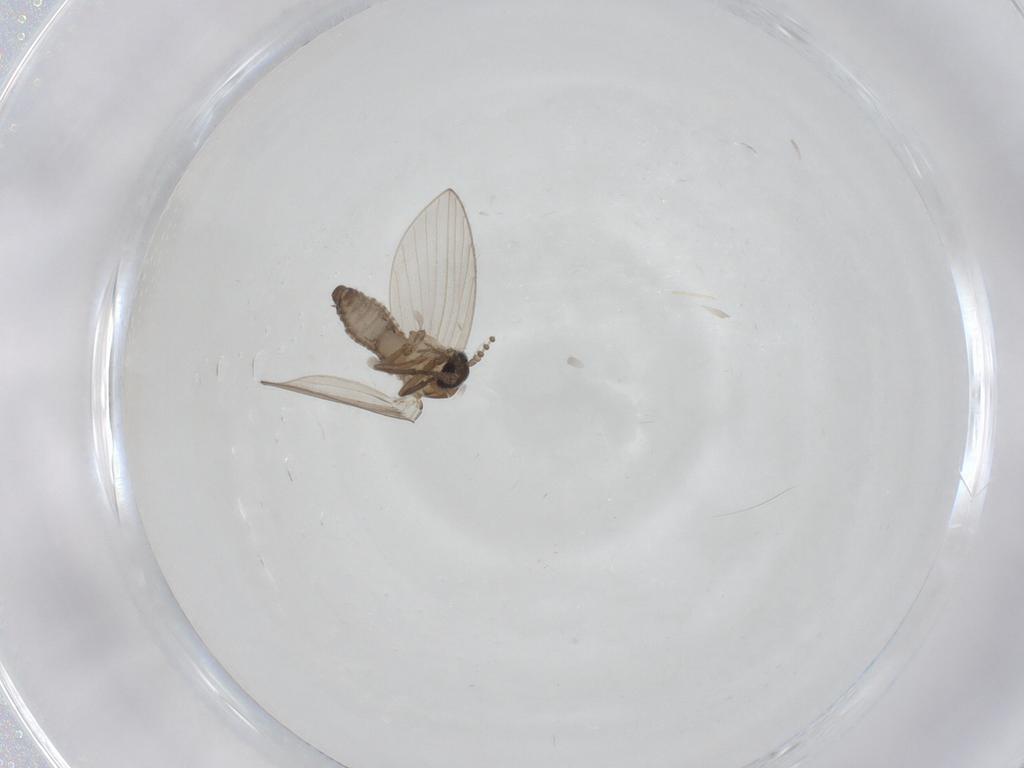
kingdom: Animalia
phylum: Arthropoda
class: Insecta
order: Diptera
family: Psychodidae
